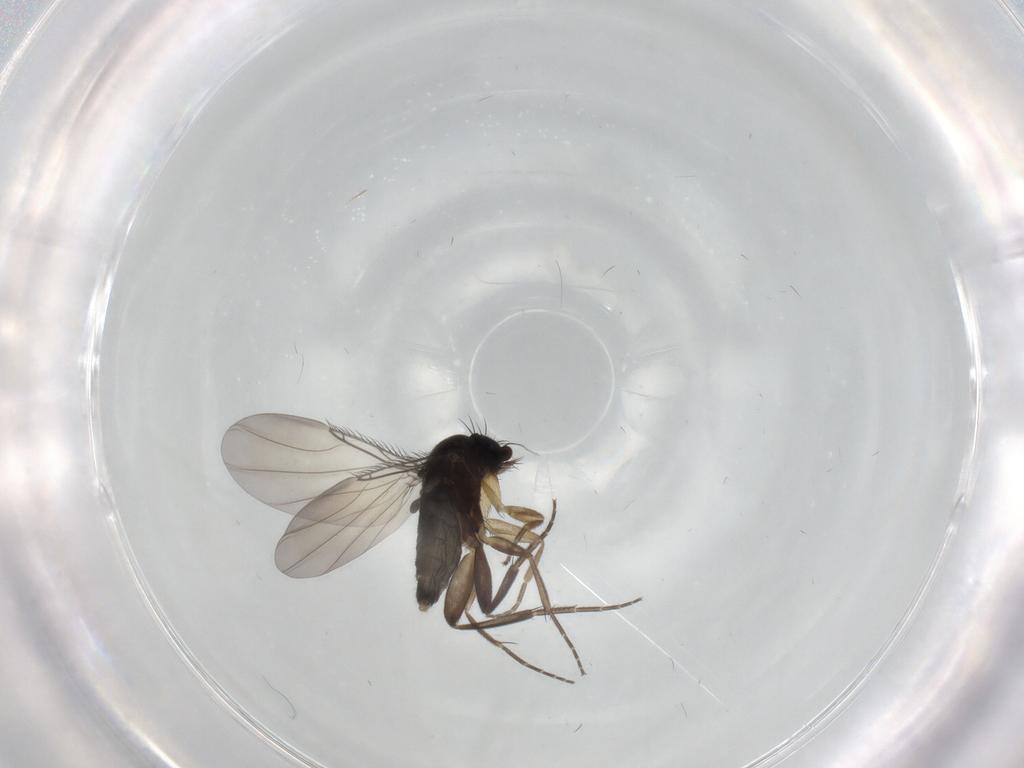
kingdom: Animalia
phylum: Arthropoda
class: Insecta
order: Diptera
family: Phoridae
